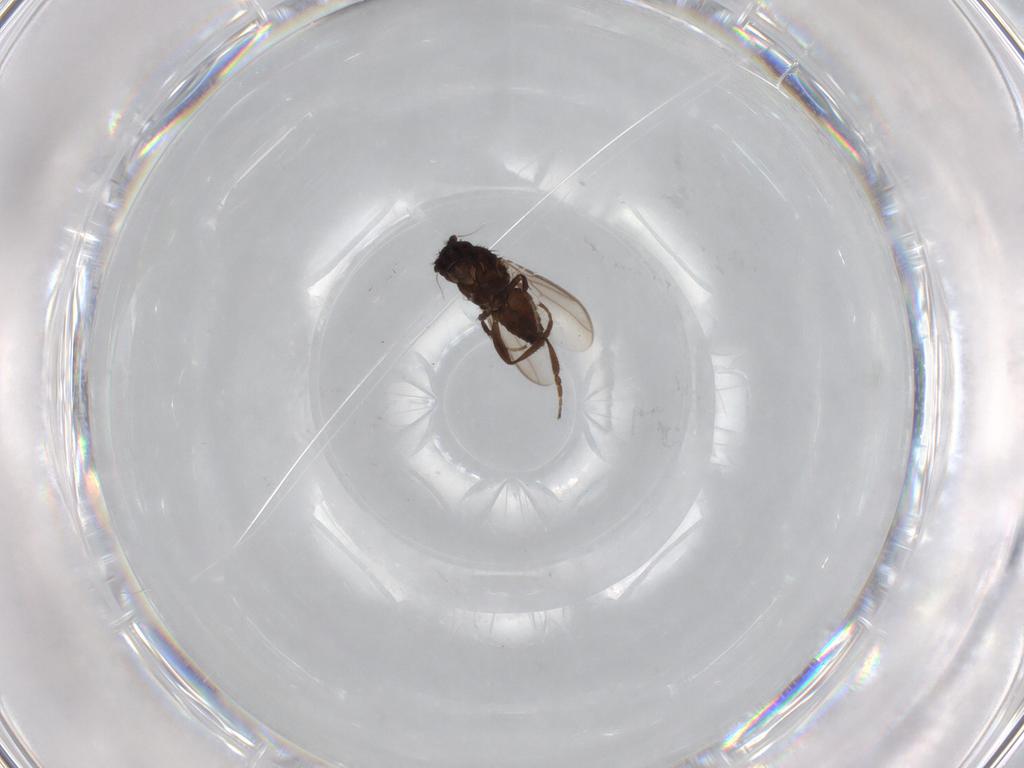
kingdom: Animalia
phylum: Arthropoda
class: Insecta
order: Diptera
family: Sphaeroceridae
